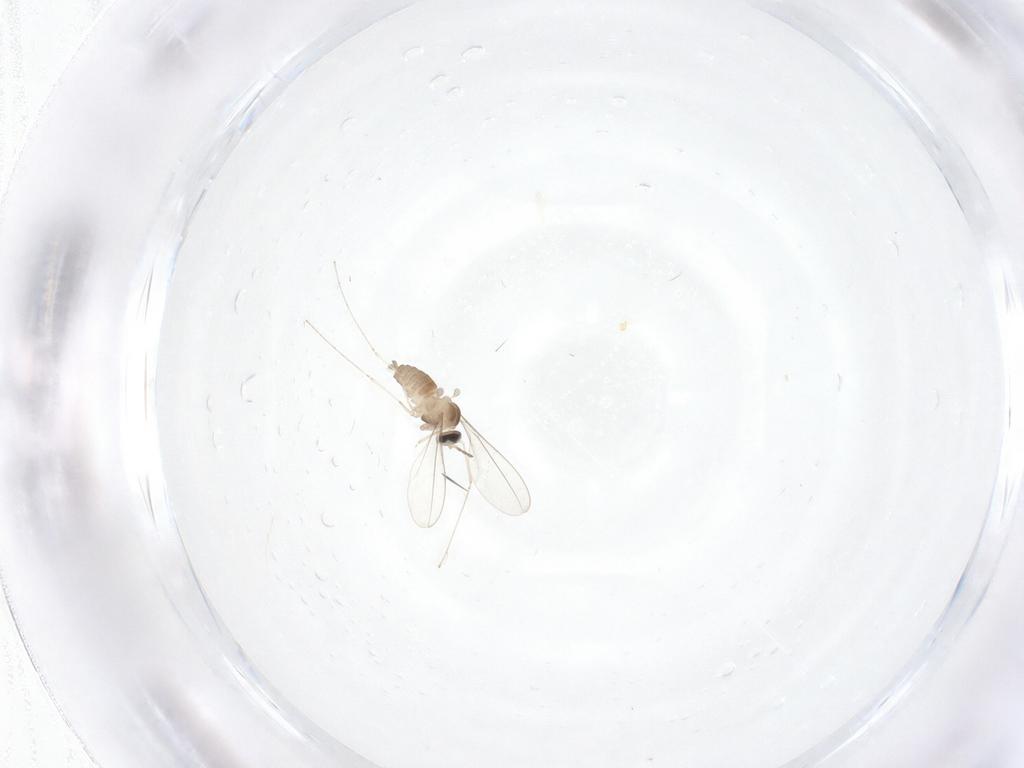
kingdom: Animalia
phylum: Arthropoda
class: Insecta
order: Diptera
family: Cecidomyiidae
